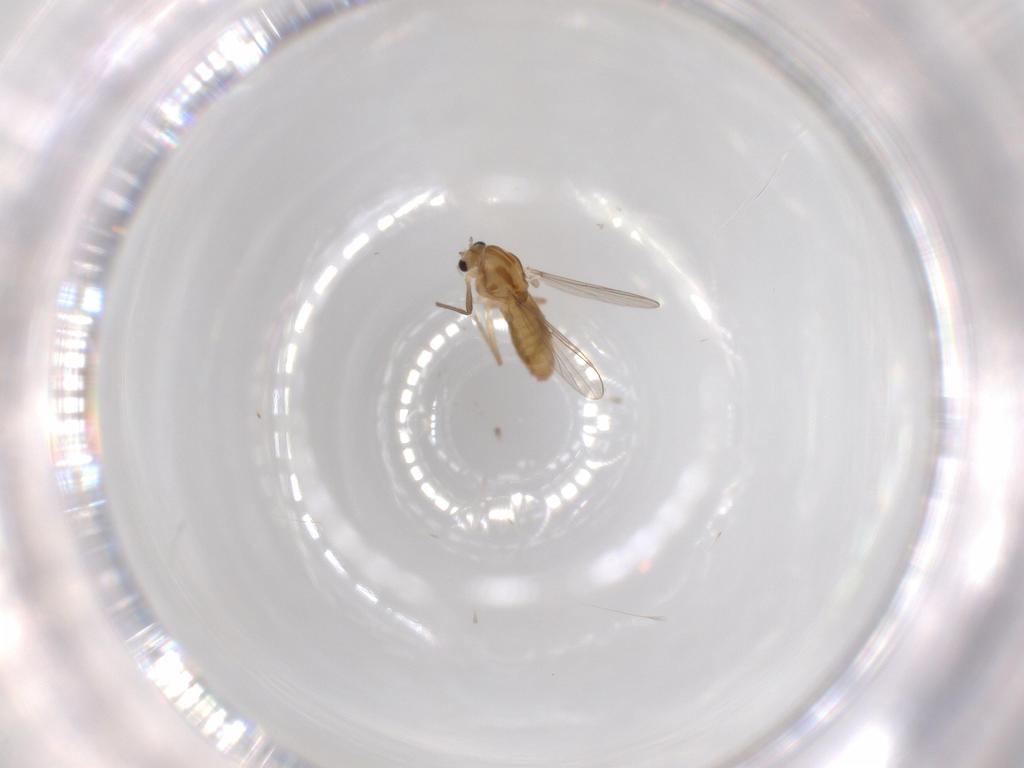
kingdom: Animalia
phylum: Arthropoda
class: Insecta
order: Diptera
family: Chironomidae
